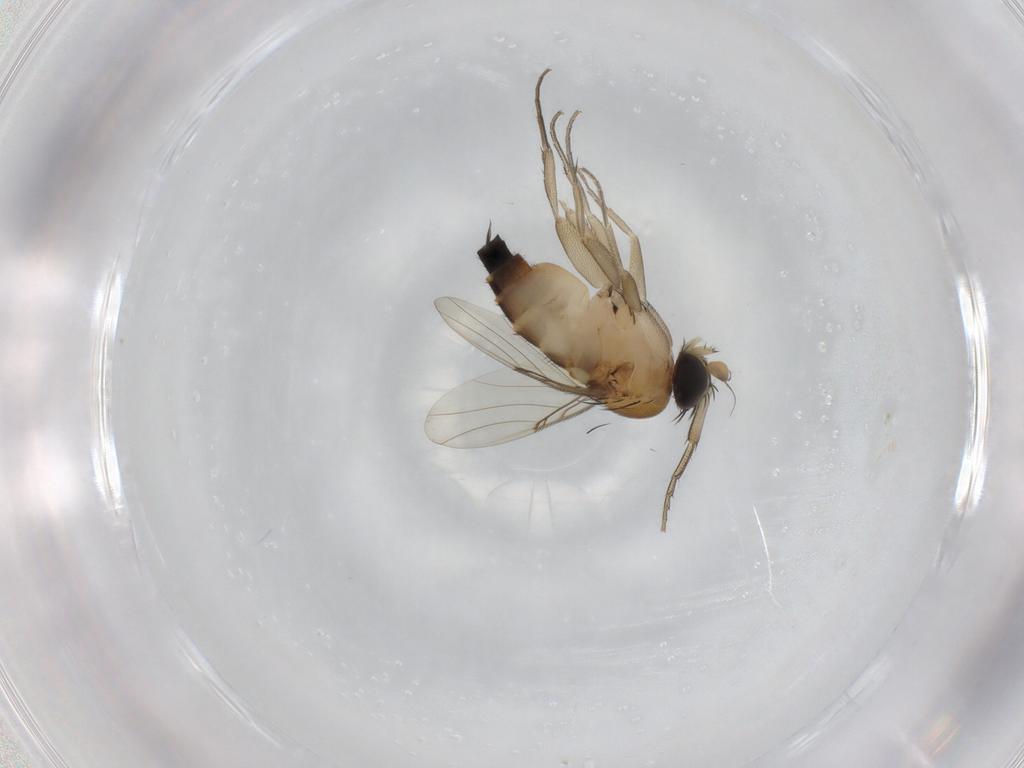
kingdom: Animalia
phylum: Arthropoda
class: Insecta
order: Diptera
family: Phoridae
